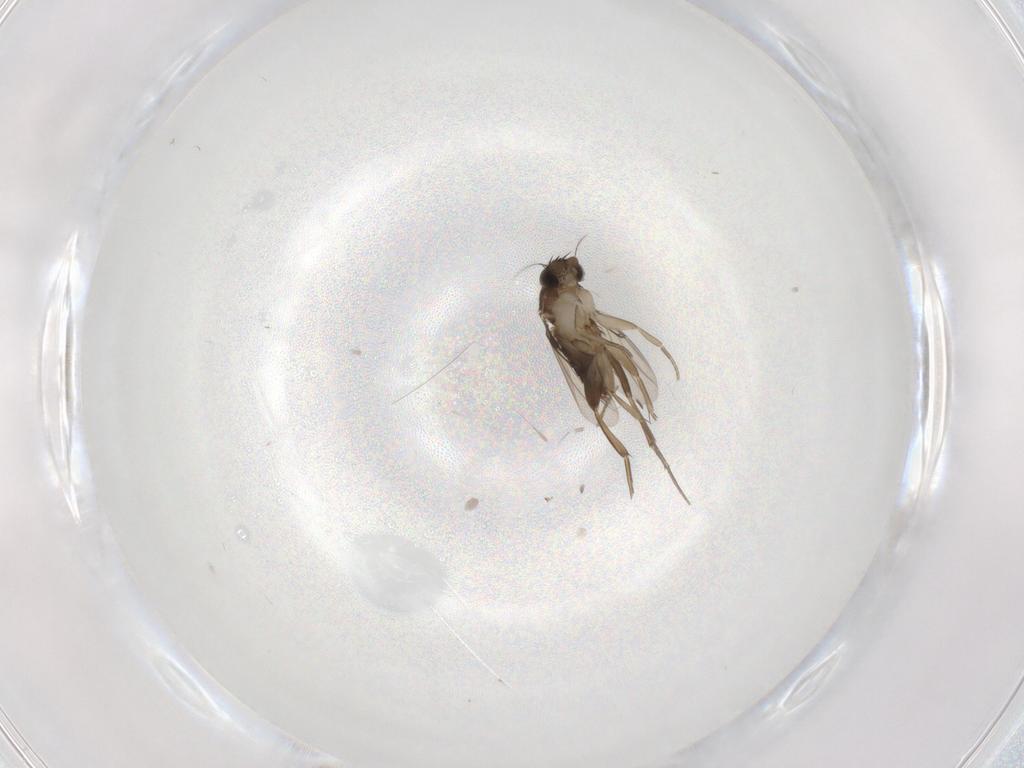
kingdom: Animalia
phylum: Arthropoda
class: Insecta
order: Diptera
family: Phoridae
